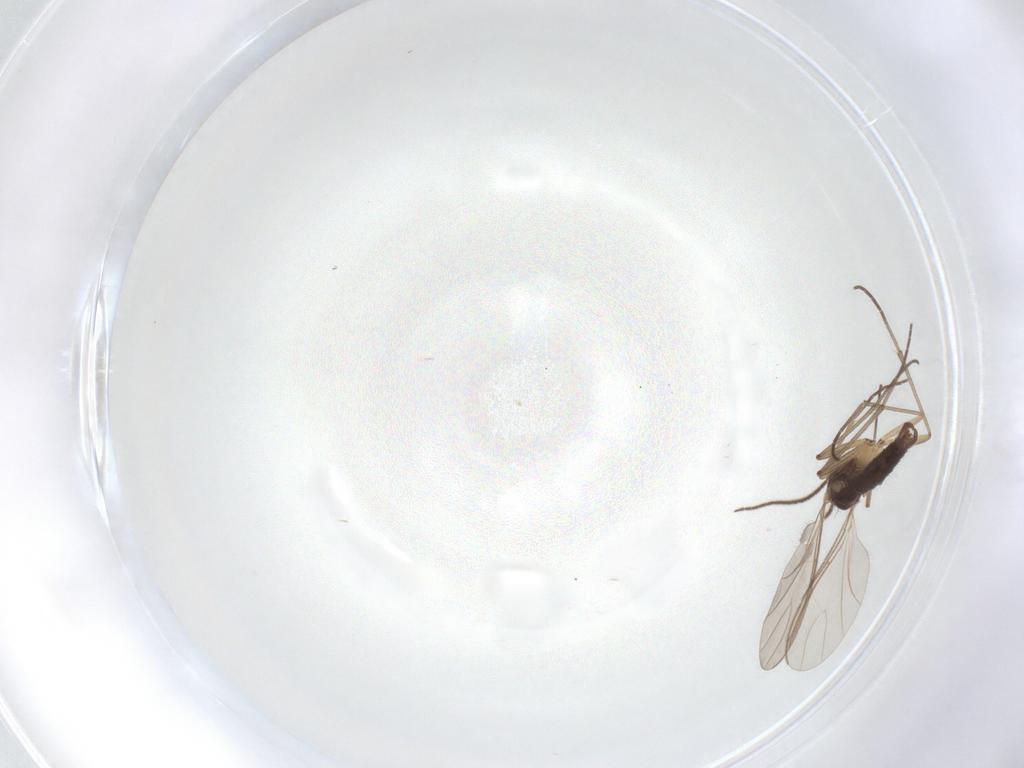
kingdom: Animalia
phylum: Arthropoda
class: Insecta
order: Diptera
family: Sciaridae
